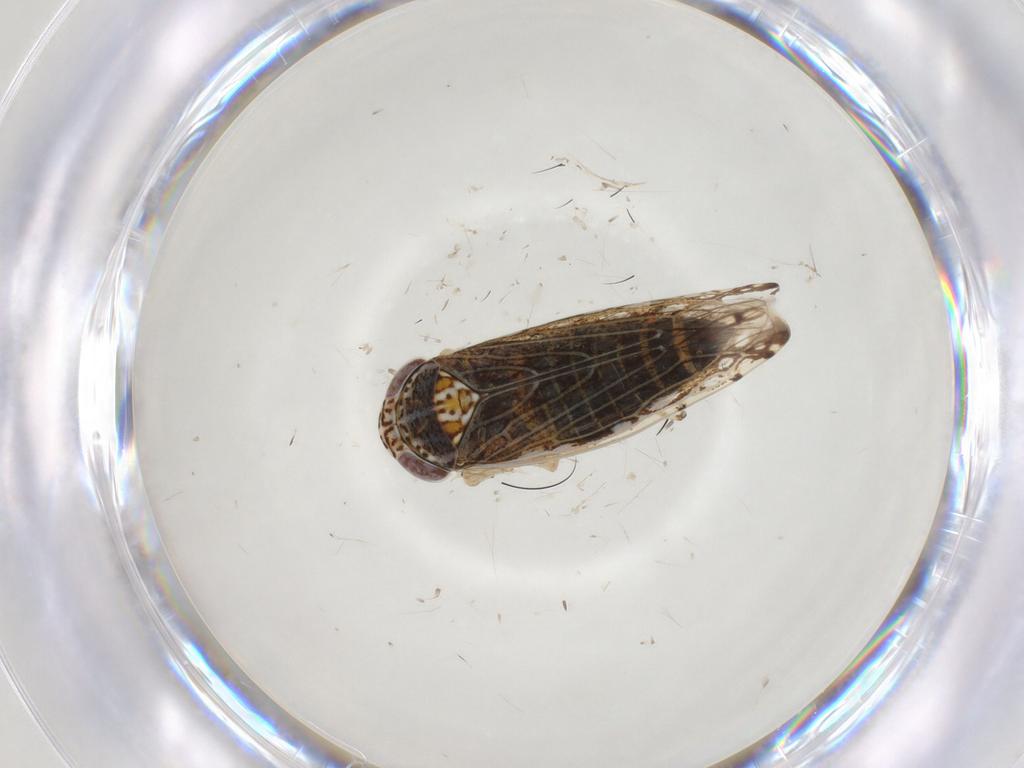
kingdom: Animalia
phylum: Arthropoda
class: Insecta
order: Hemiptera
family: Cicadellidae
